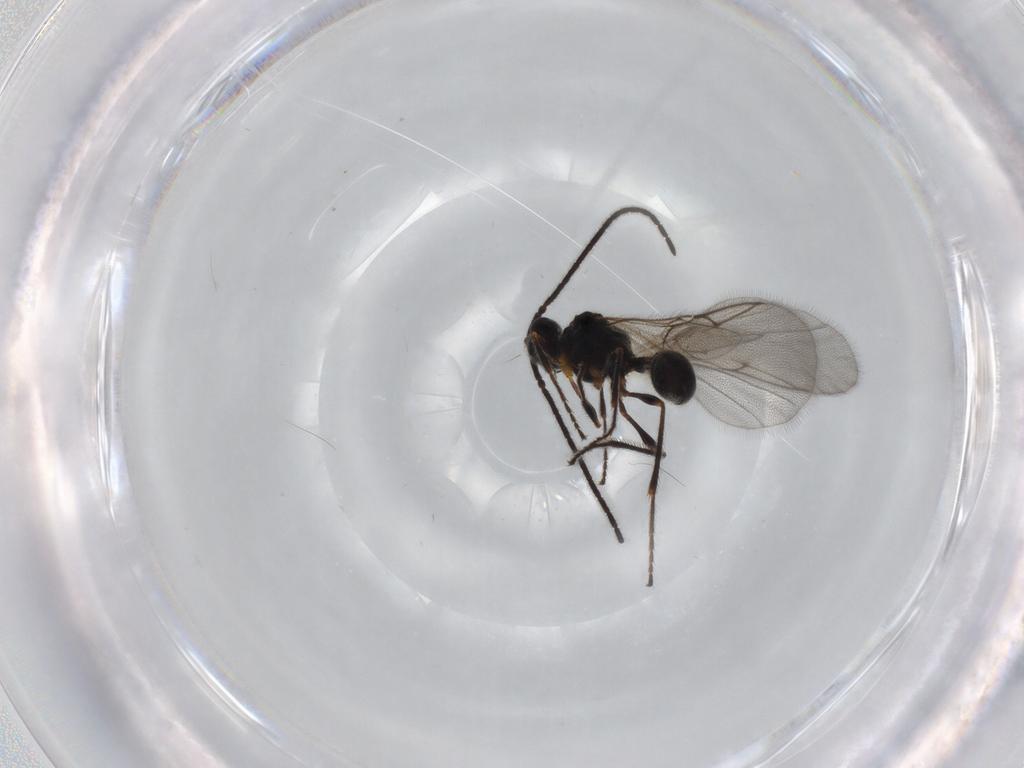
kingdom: Animalia
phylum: Arthropoda
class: Insecta
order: Hymenoptera
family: Diapriidae
